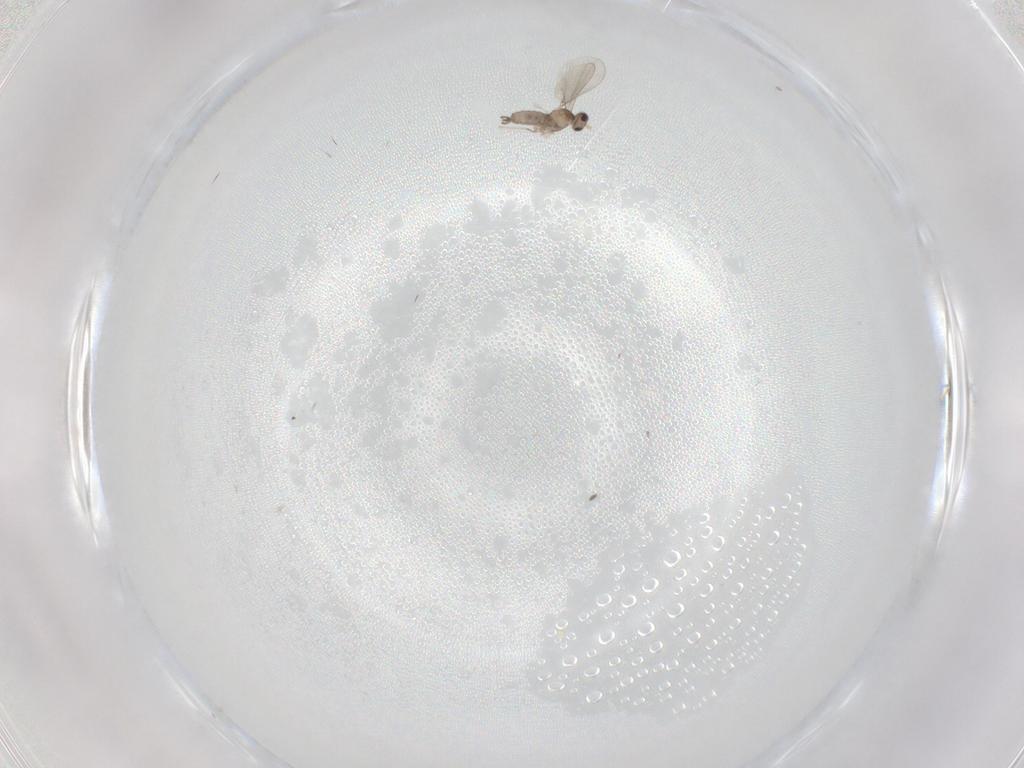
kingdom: Animalia
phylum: Arthropoda
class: Insecta
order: Diptera
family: Cecidomyiidae
